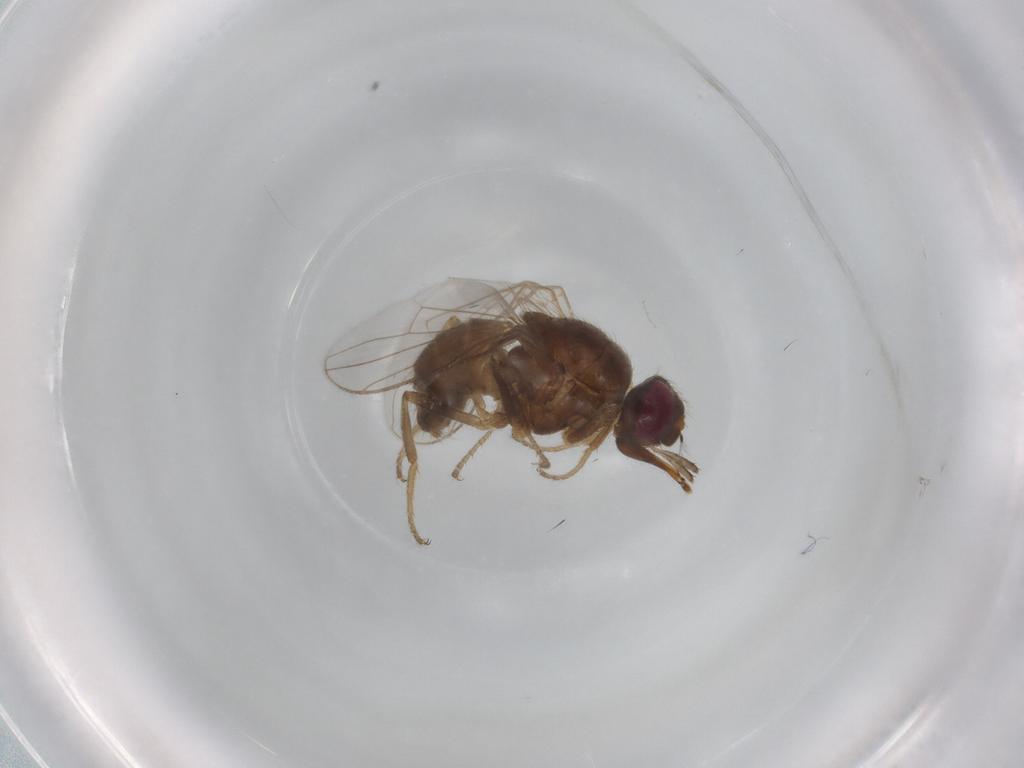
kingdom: Animalia
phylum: Arthropoda
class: Insecta
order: Diptera
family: Muscidae
